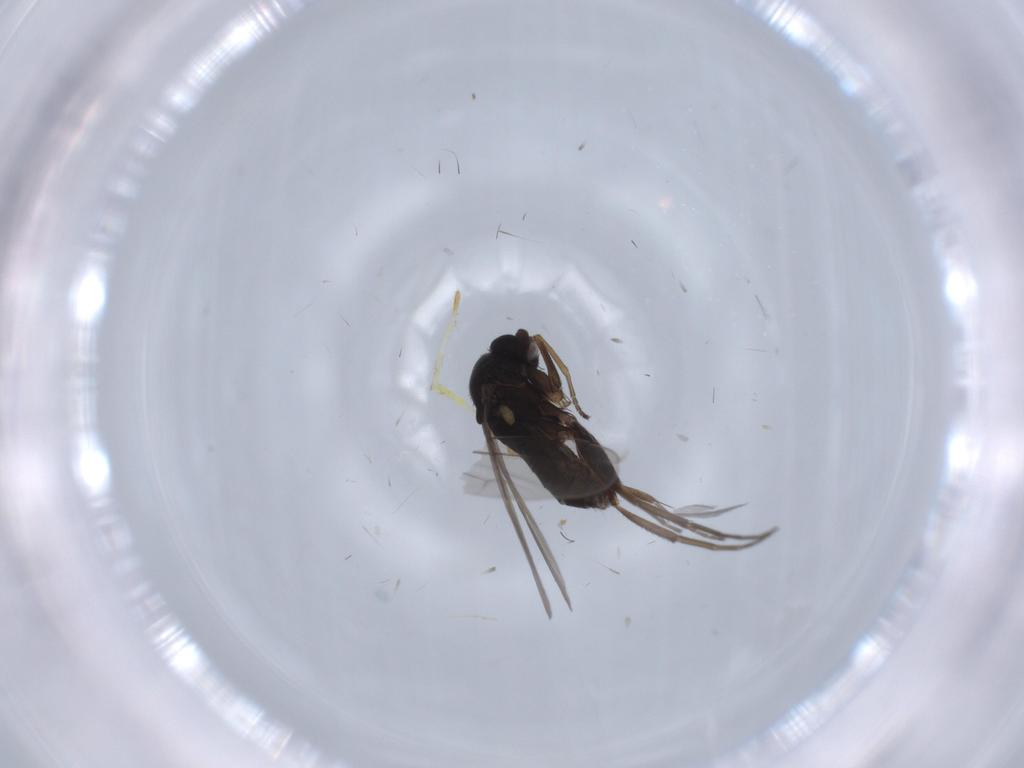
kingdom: Animalia
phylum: Arthropoda
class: Insecta
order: Diptera
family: Phoridae
